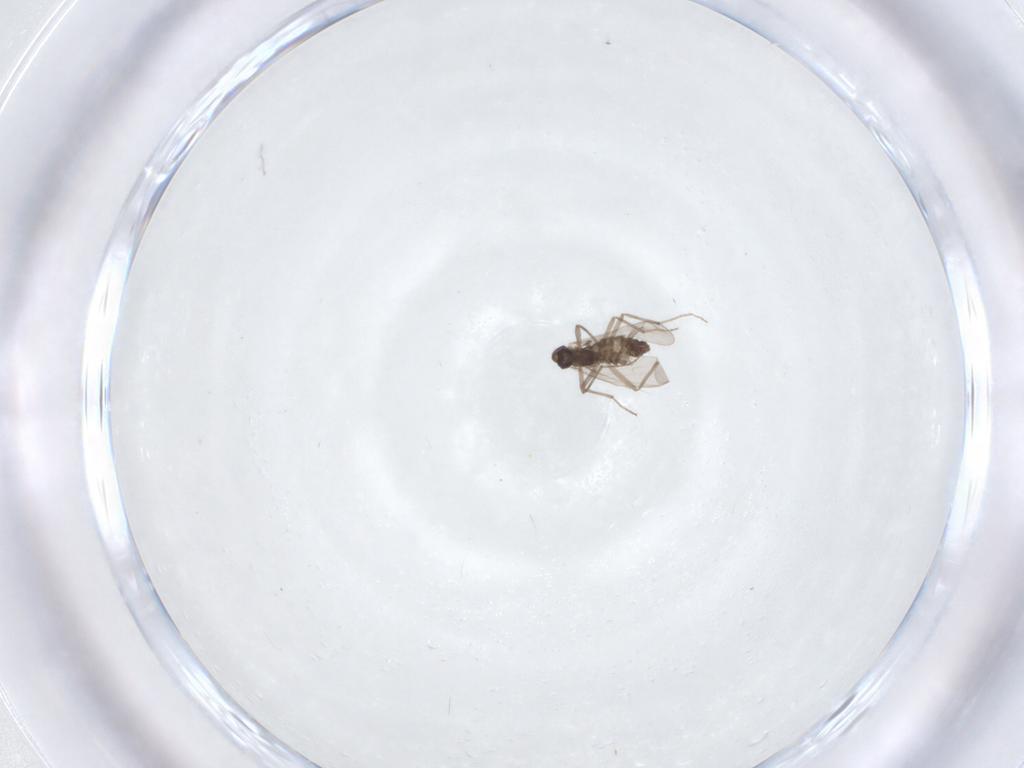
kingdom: Animalia
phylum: Arthropoda
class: Insecta
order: Diptera
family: Chironomidae
